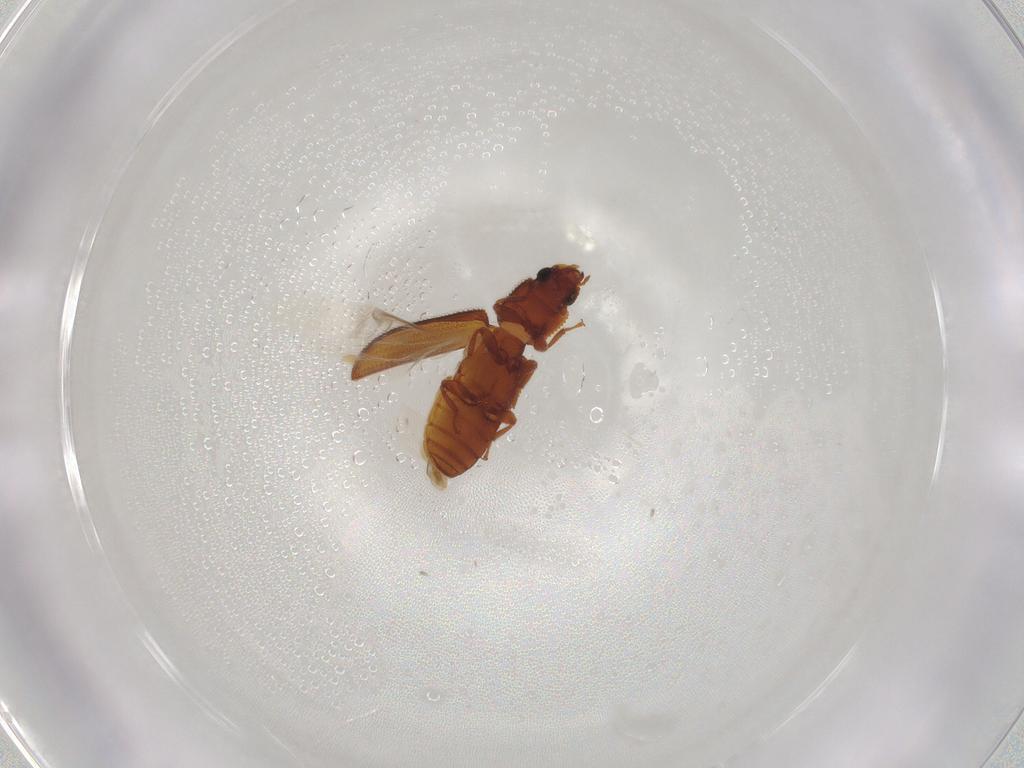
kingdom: Animalia
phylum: Arthropoda
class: Insecta
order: Coleoptera
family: Zopheridae
